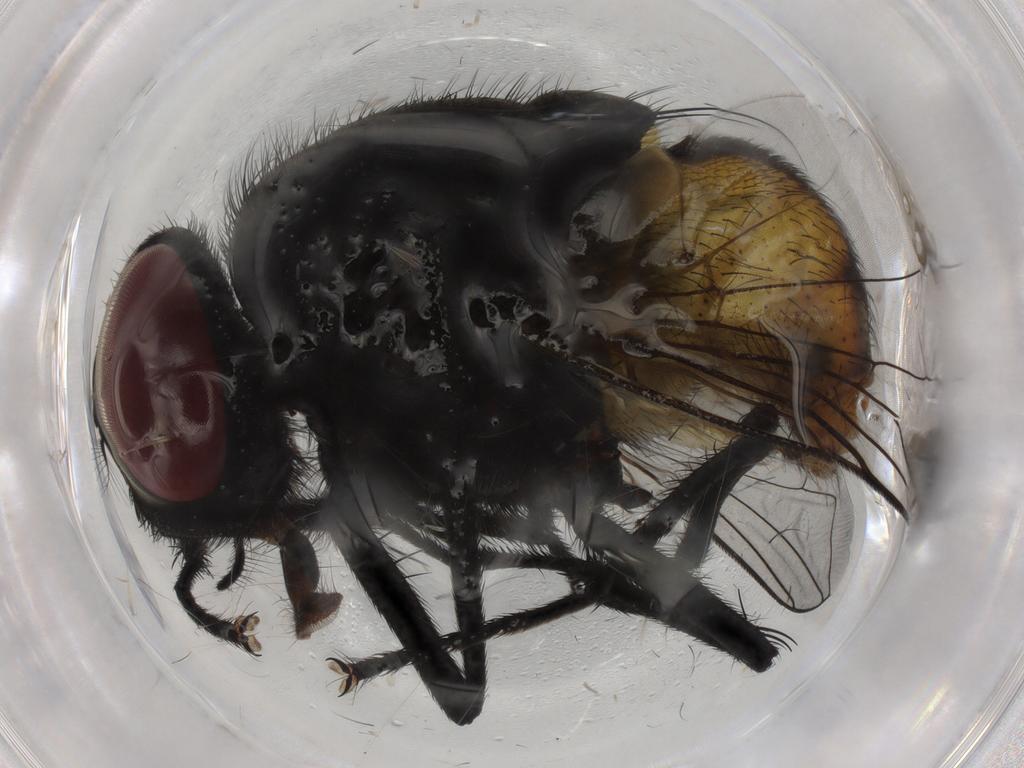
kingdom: Animalia
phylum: Arthropoda
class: Insecta
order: Diptera
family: Muscidae
